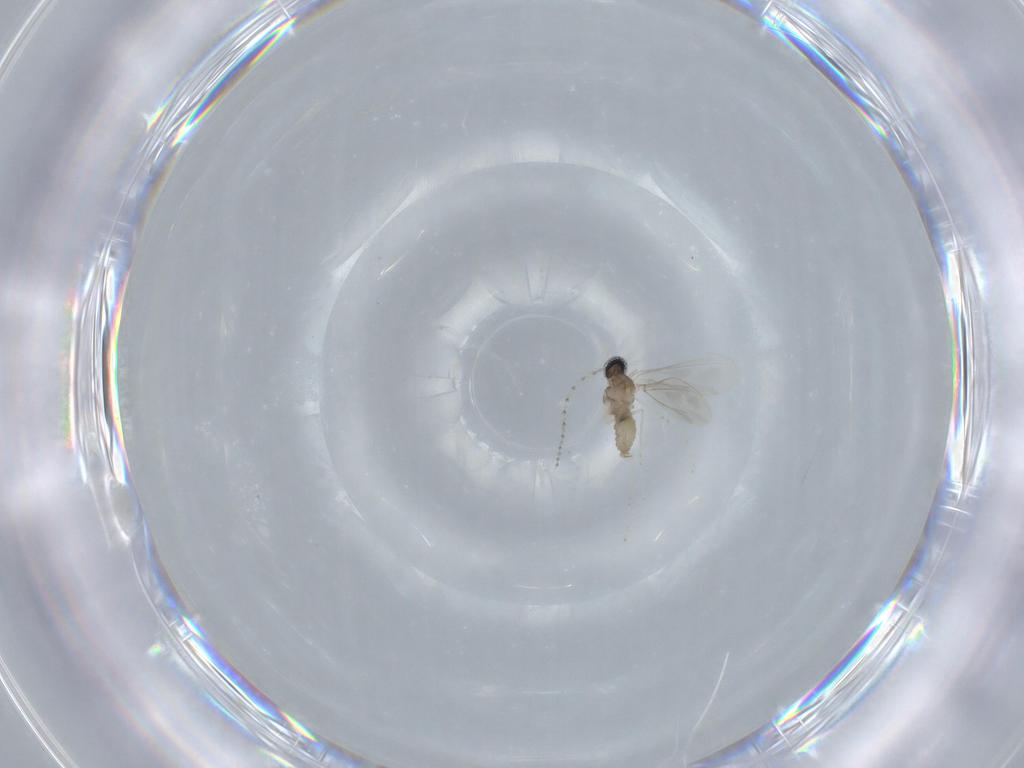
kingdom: Animalia
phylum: Arthropoda
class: Insecta
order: Diptera
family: Cecidomyiidae
